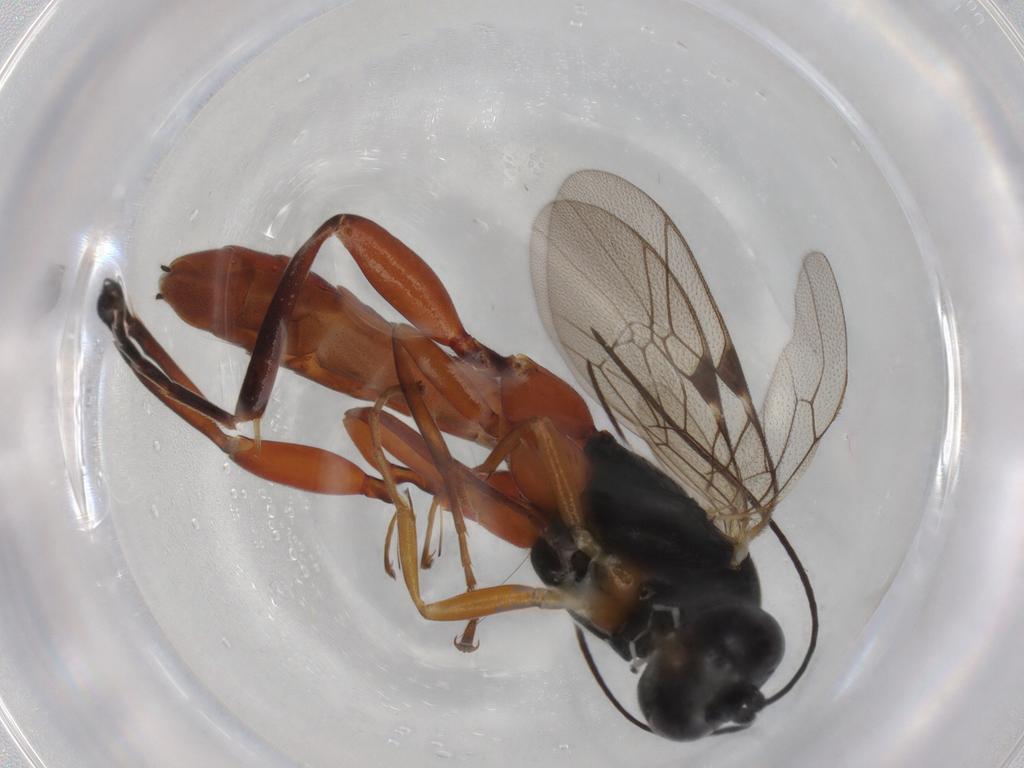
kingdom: Animalia
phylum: Arthropoda
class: Insecta
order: Hymenoptera
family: Ichneumonidae
